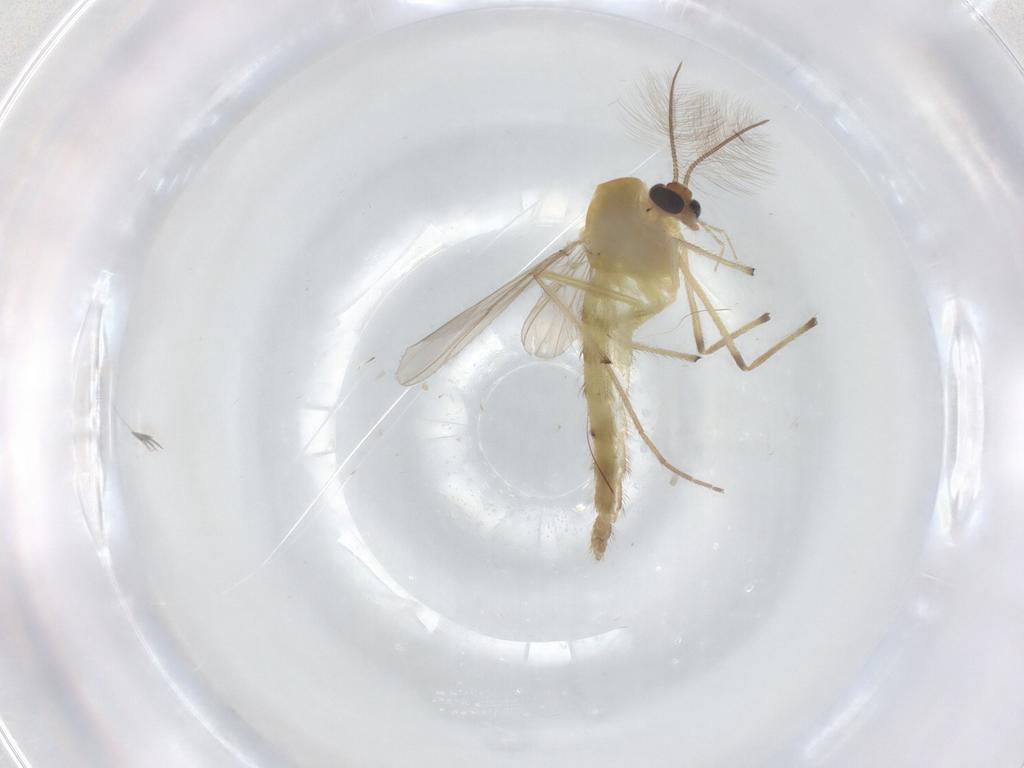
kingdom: Animalia
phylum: Arthropoda
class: Insecta
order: Diptera
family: Chironomidae
